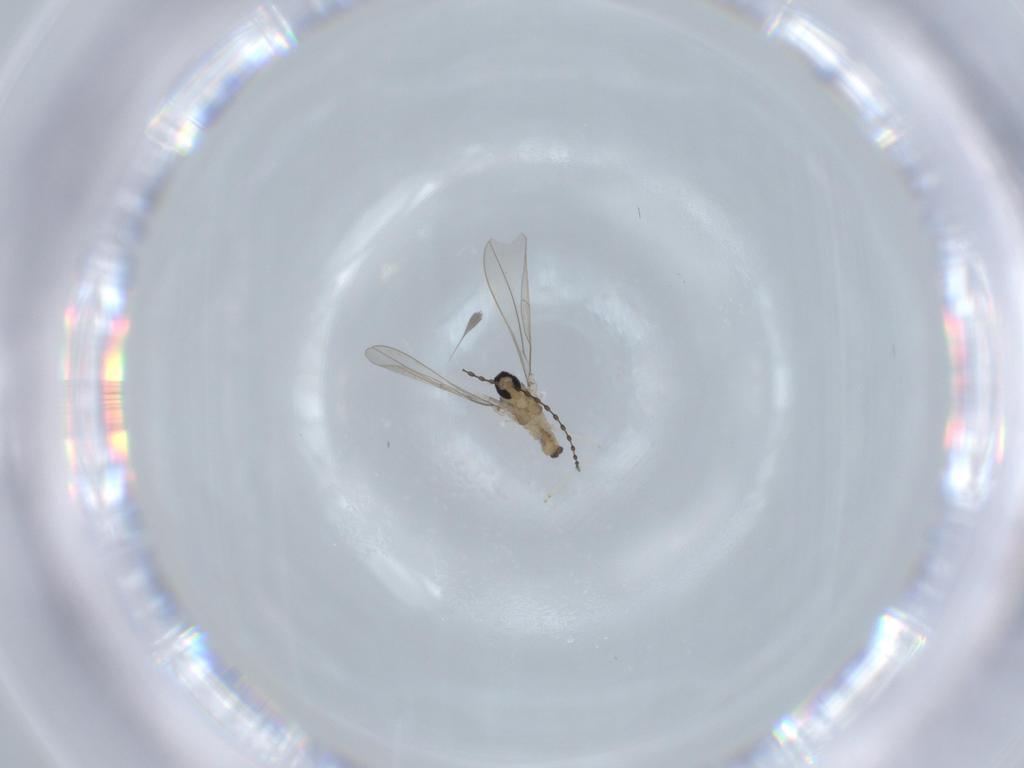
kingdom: Animalia
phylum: Arthropoda
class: Insecta
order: Diptera
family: Cecidomyiidae
